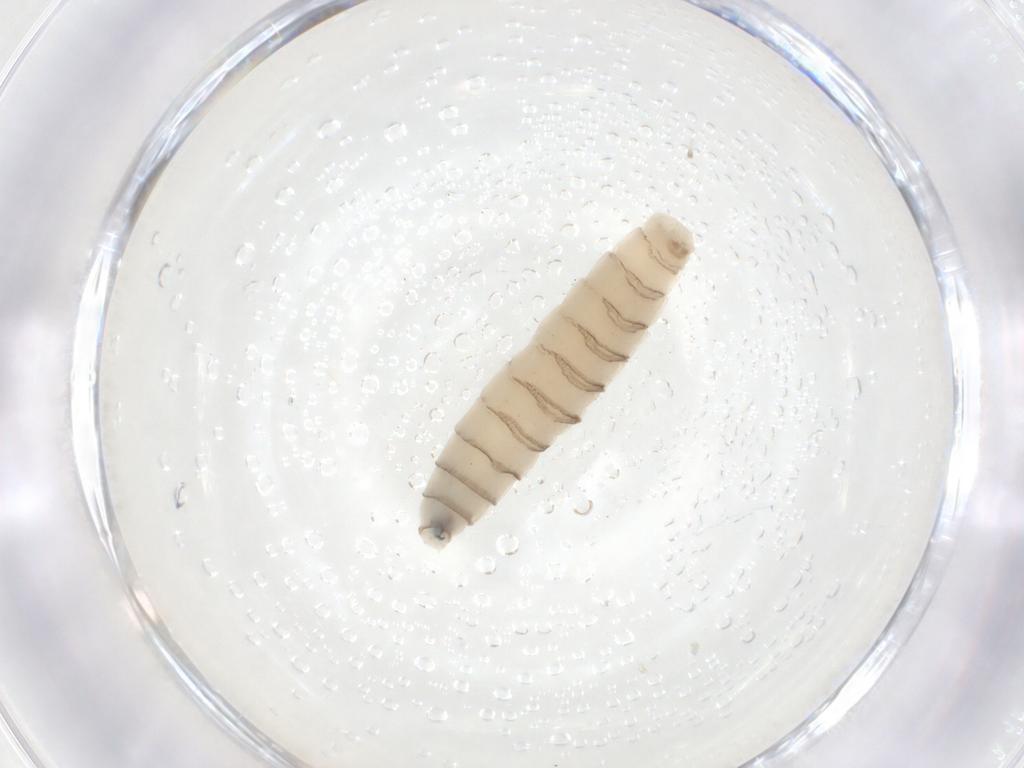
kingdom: Animalia
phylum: Arthropoda
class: Insecta
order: Diptera
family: Sarcophagidae
